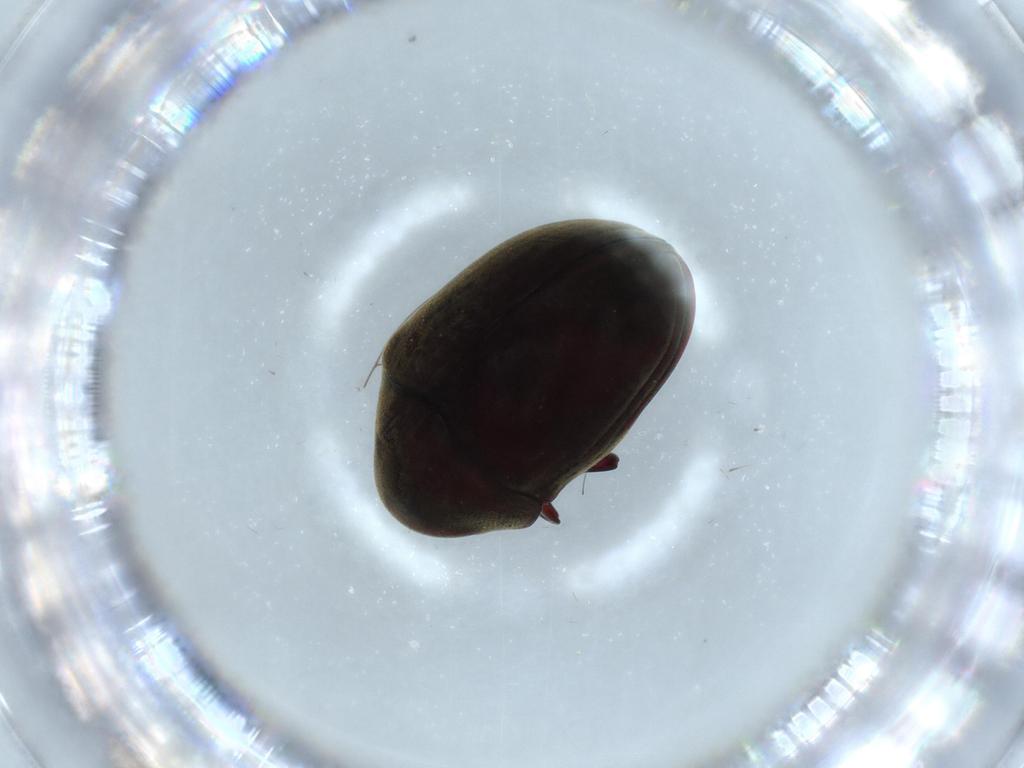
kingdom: Animalia
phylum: Arthropoda
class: Insecta
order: Coleoptera
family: Ptinidae
